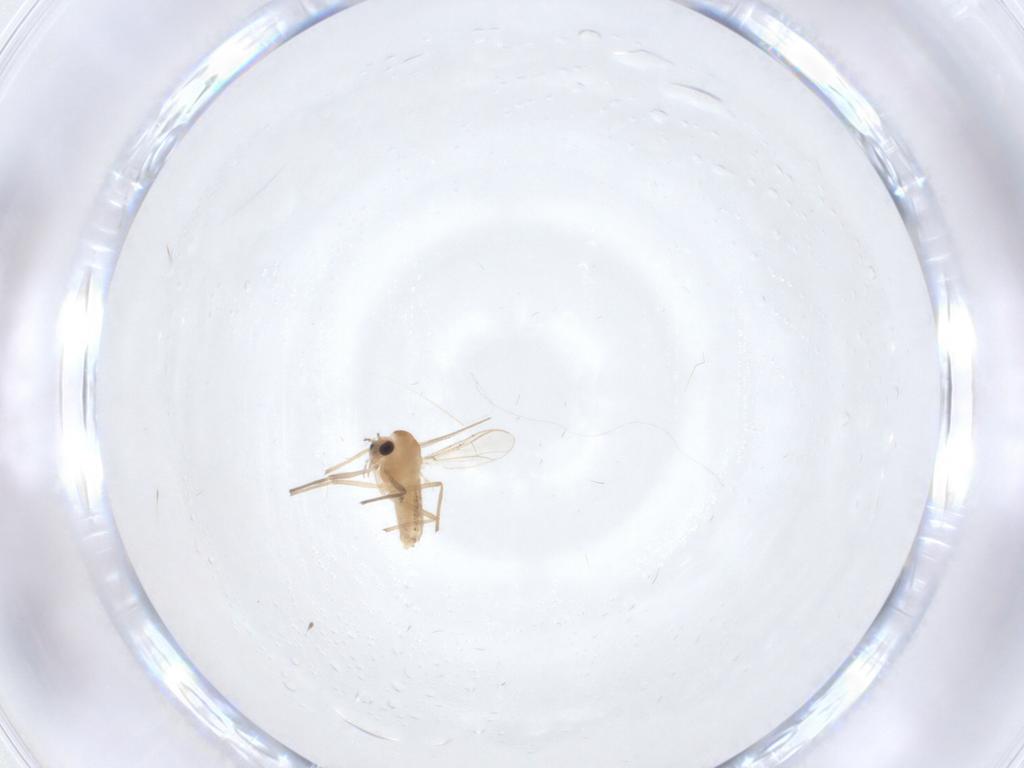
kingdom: Animalia
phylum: Arthropoda
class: Insecta
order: Diptera
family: Chironomidae
